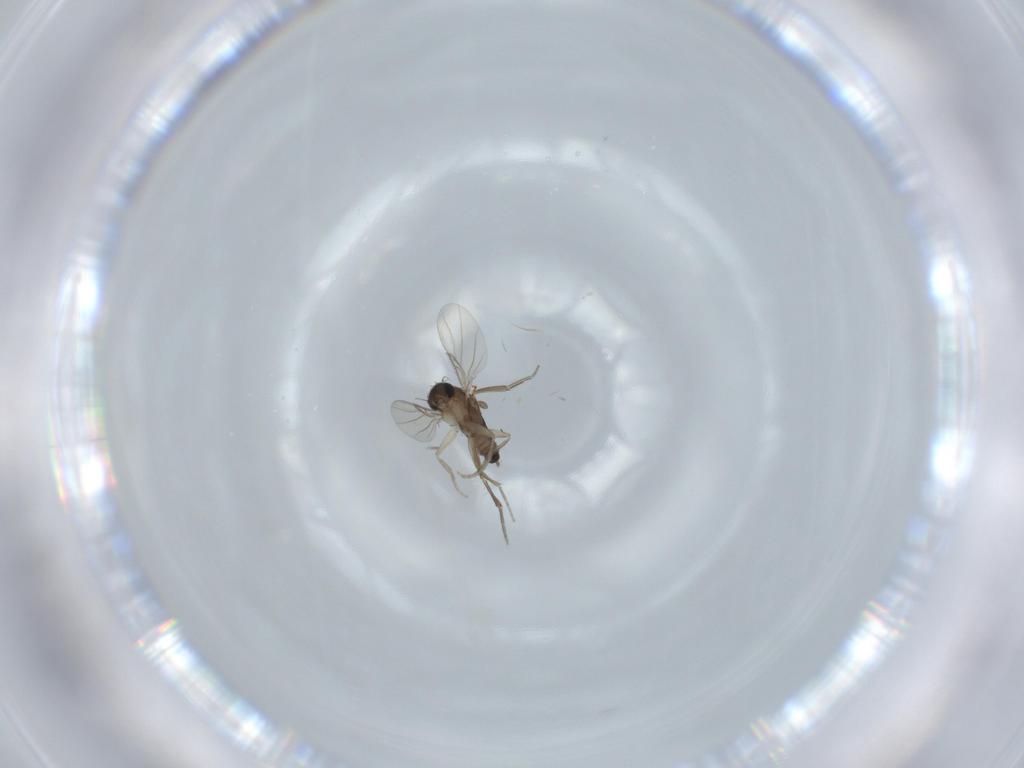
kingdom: Animalia
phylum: Arthropoda
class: Insecta
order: Diptera
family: Phoridae
